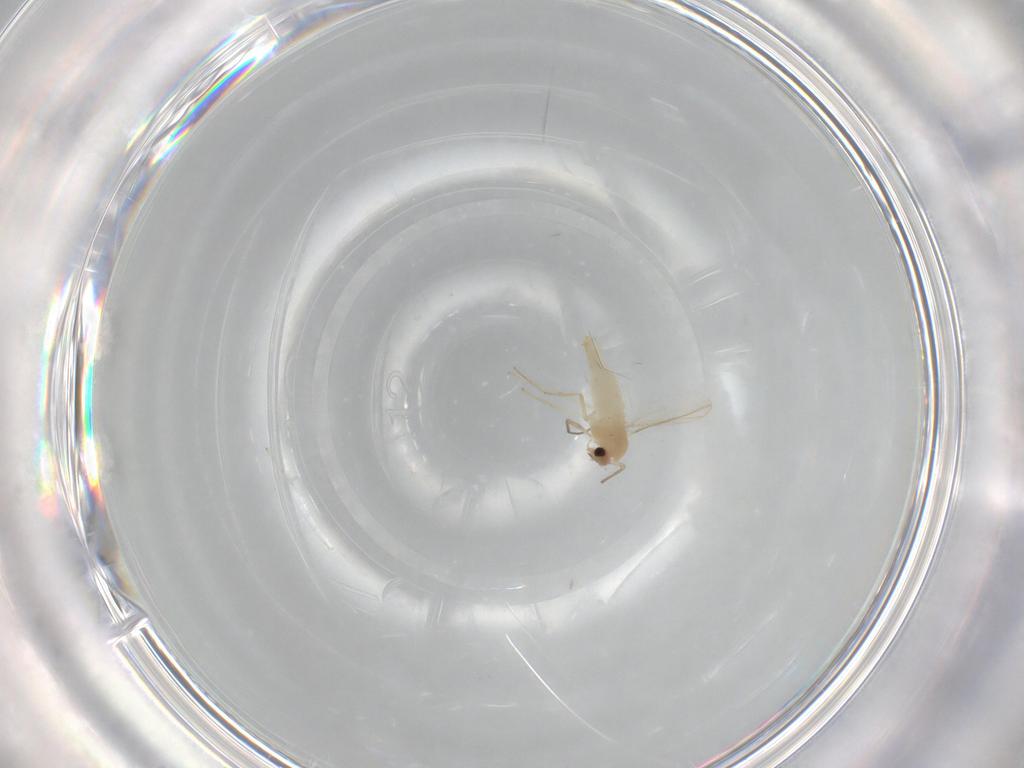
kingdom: Animalia
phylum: Arthropoda
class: Insecta
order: Diptera
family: Chironomidae
